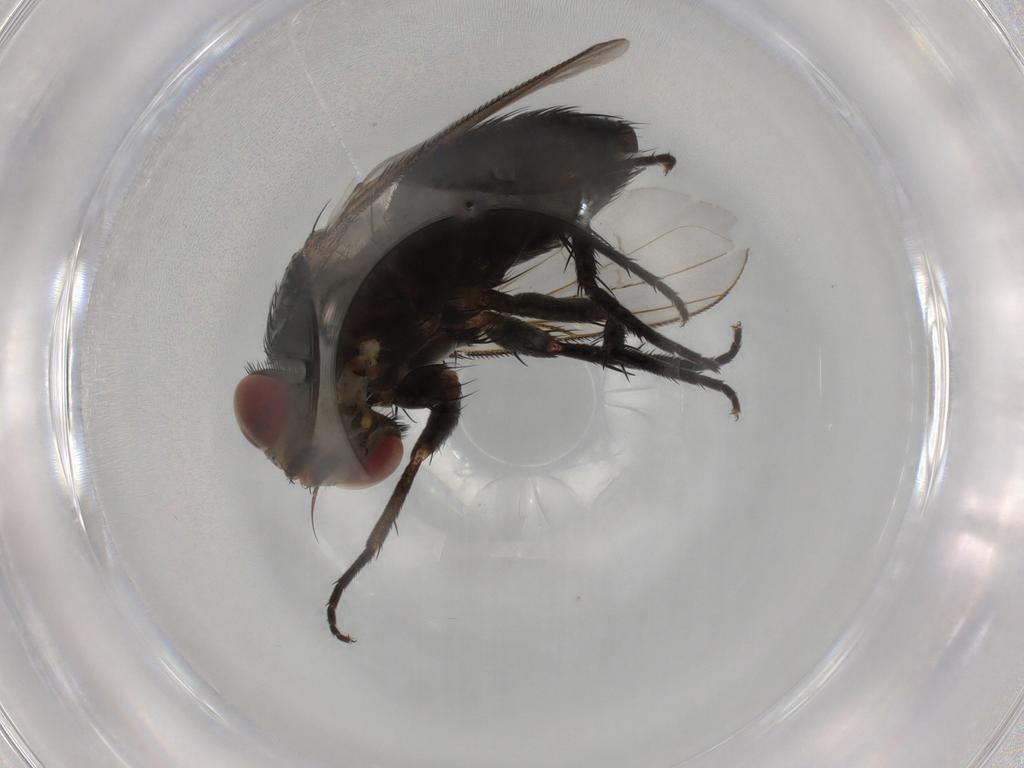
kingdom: Animalia
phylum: Arthropoda
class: Insecta
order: Diptera
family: Tachinidae
